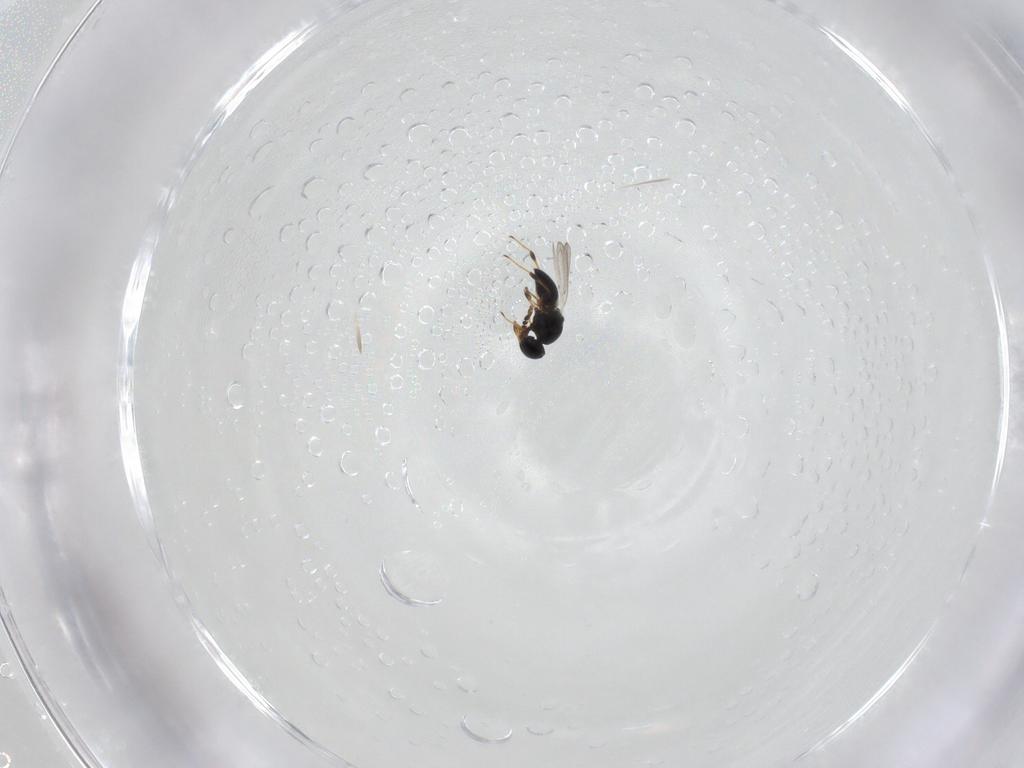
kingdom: Animalia
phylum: Arthropoda
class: Insecta
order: Hymenoptera
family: Platygastridae
